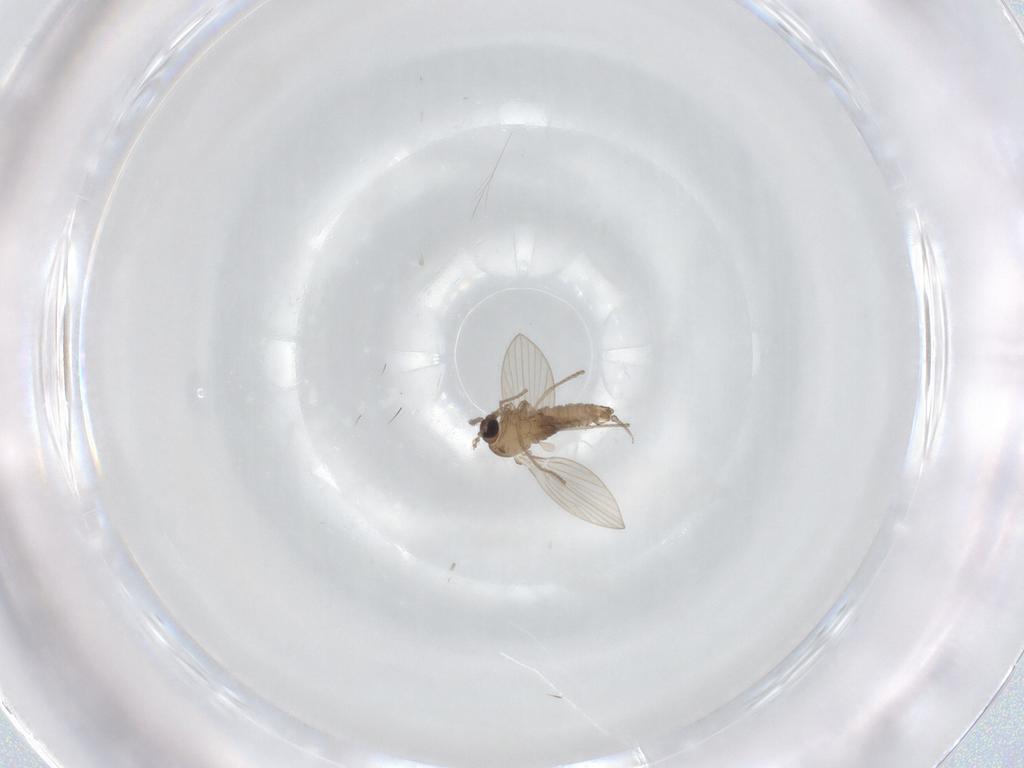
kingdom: Animalia
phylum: Arthropoda
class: Insecta
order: Diptera
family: Psychodidae
